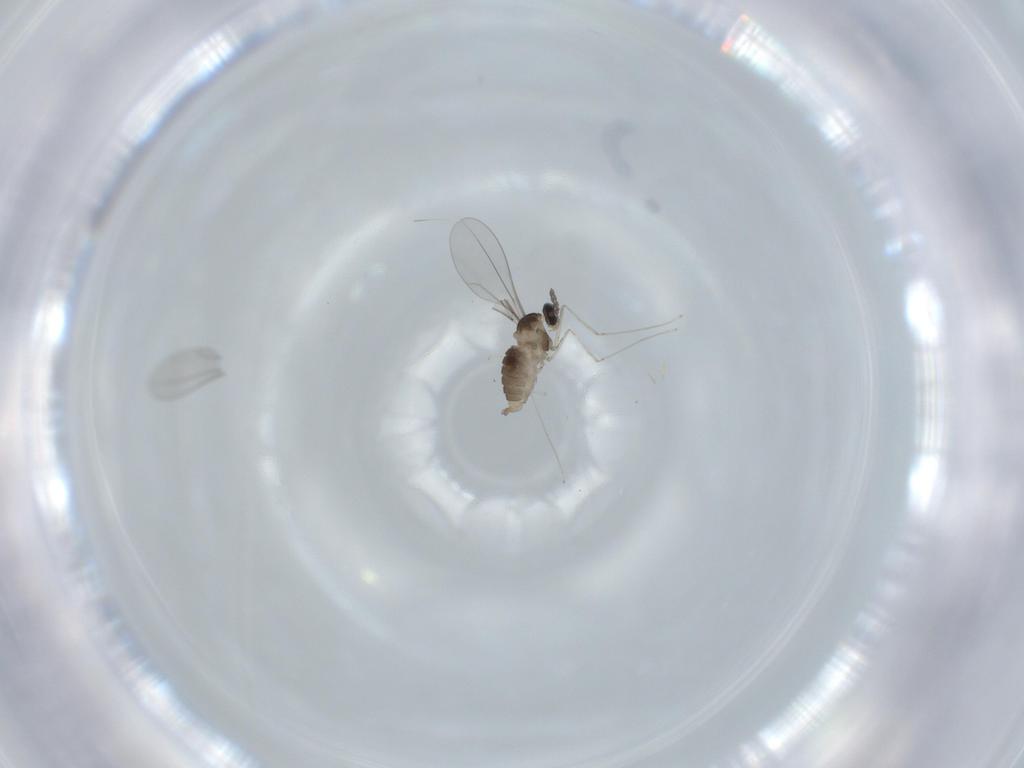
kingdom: Animalia
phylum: Arthropoda
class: Insecta
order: Diptera
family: Cecidomyiidae
